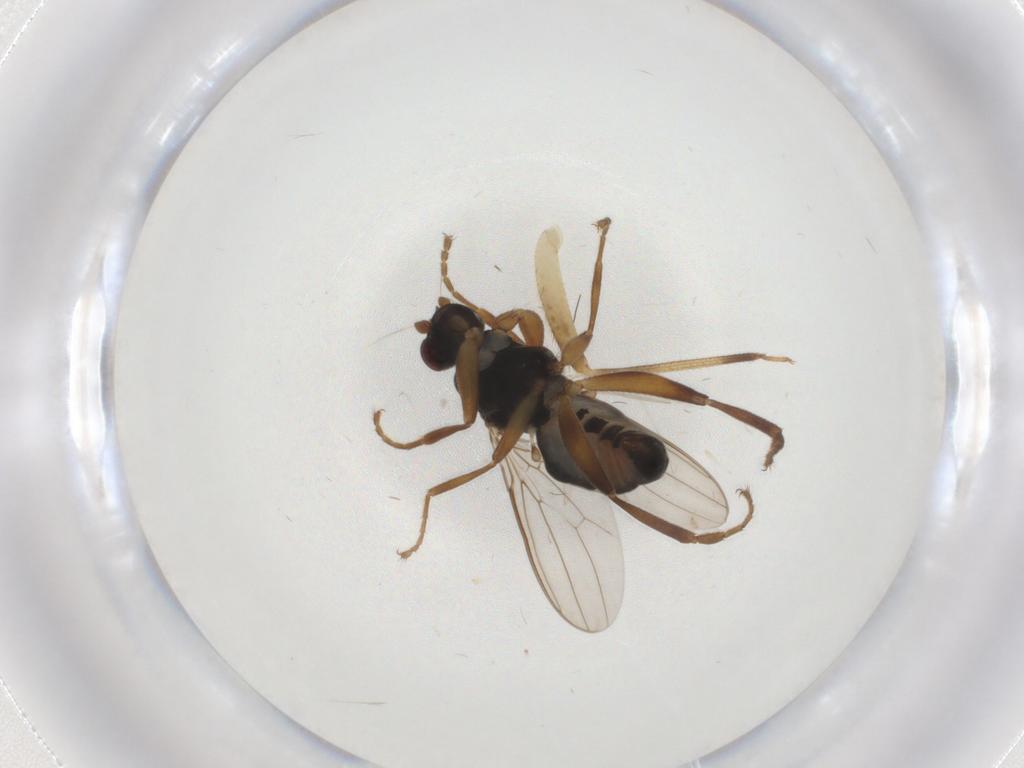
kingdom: Animalia
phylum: Arthropoda
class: Insecta
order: Diptera
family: Sphaeroceridae
